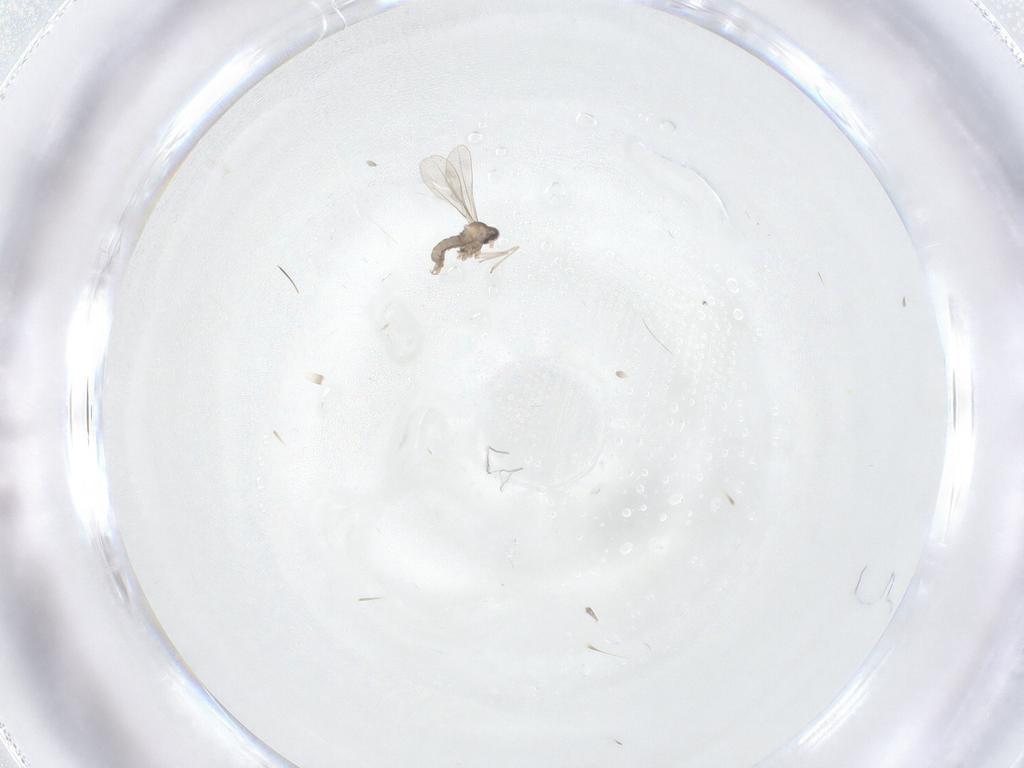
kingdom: Animalia
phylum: Arthropoda
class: Insecta
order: Diptera
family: Cecidomyiidae
